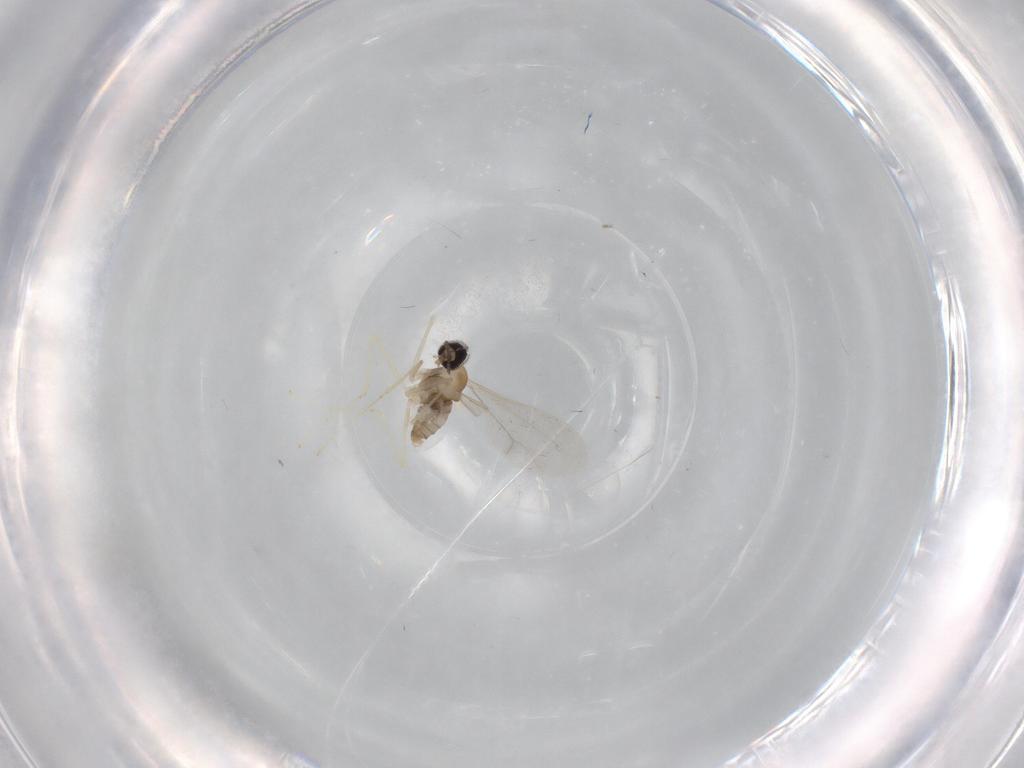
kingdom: Animalia
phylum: Arthropoda
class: Insecta
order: Diptera
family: Cecidomyiidae
